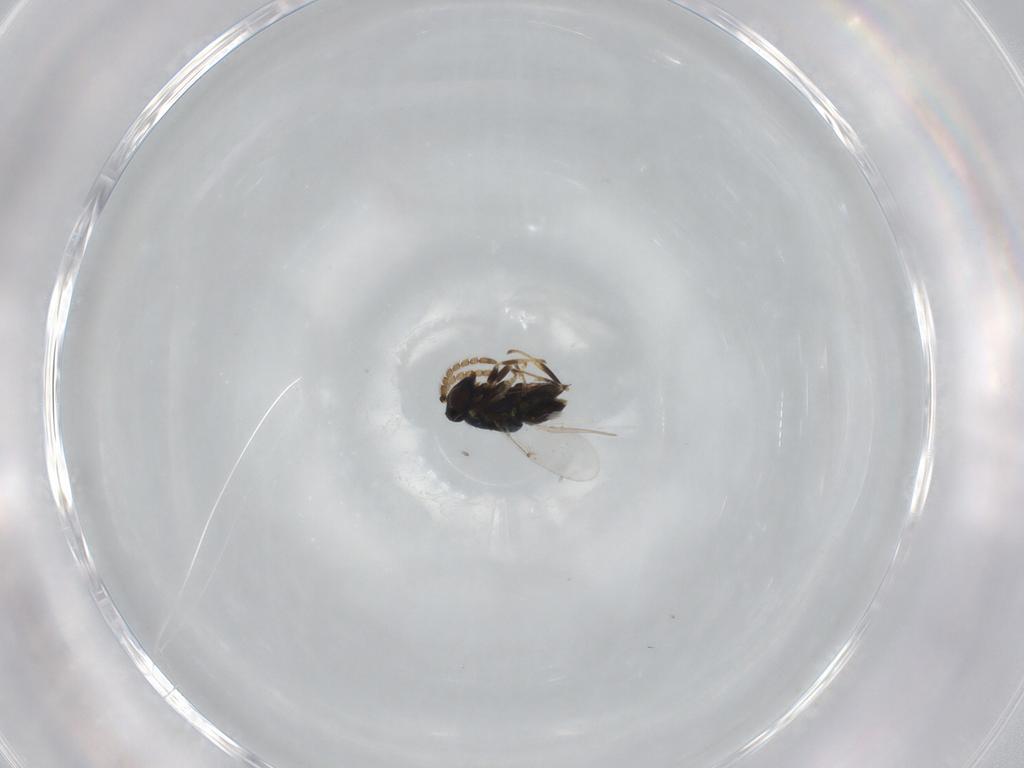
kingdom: Animalia
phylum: Arthropoda
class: Insecta
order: Hymenoptera
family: Encyrtidae
